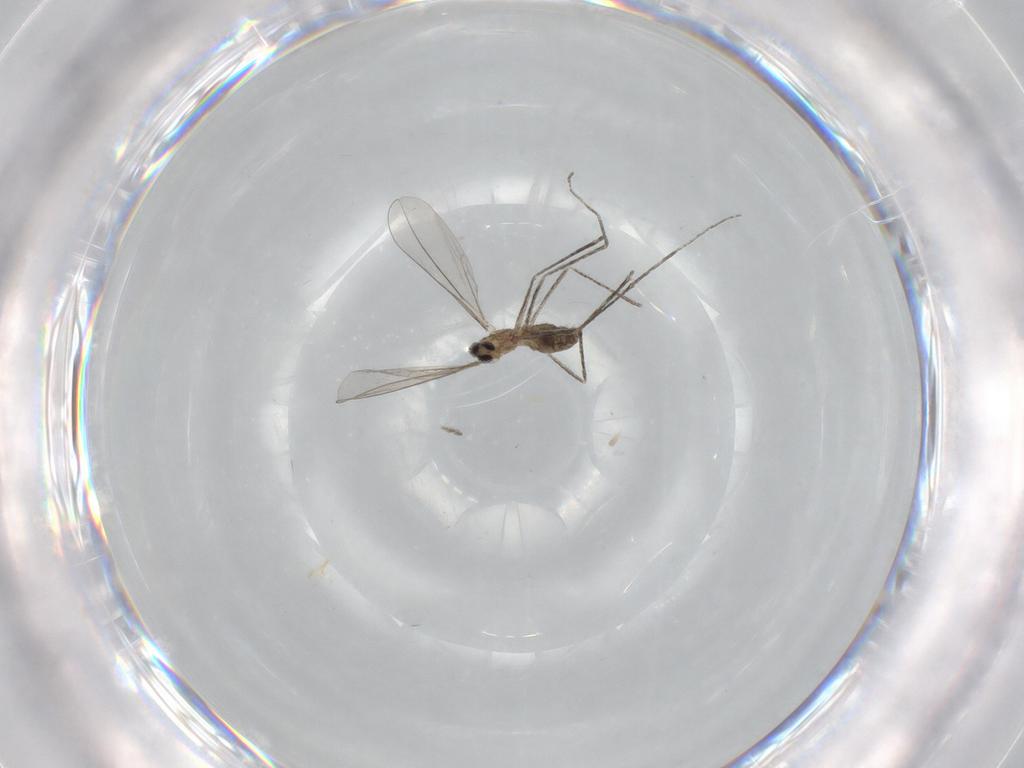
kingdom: Animalia
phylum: Arthropoda
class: Insecta
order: Diptera
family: Cecidomyiidae
